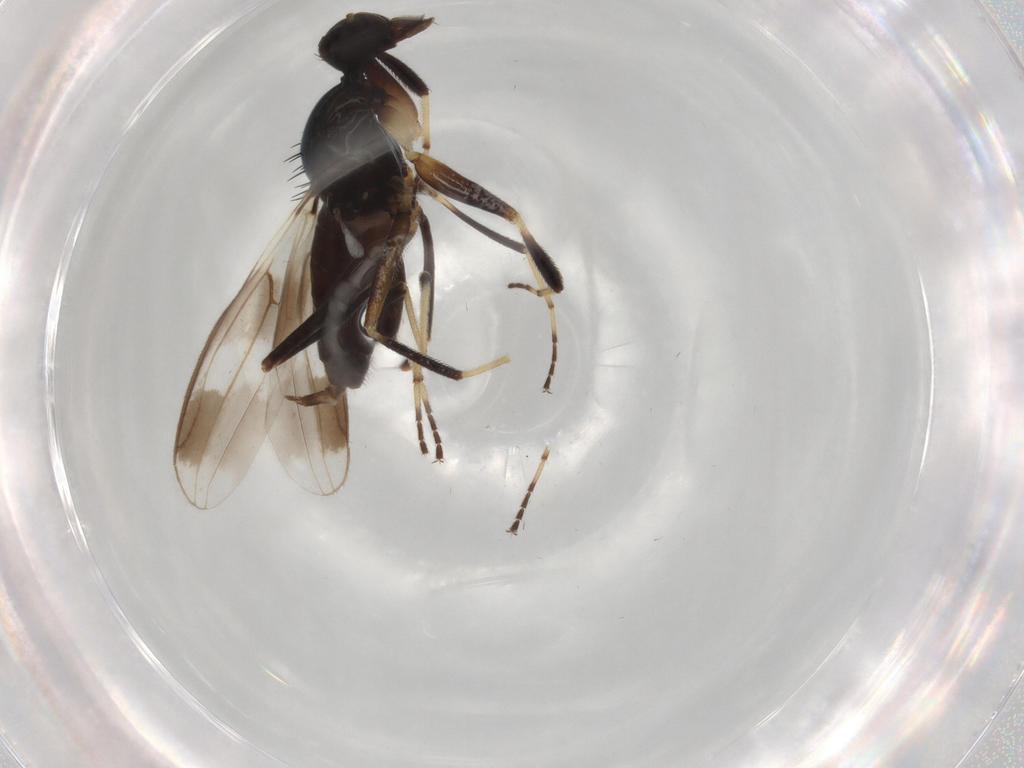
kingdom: Animalia
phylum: Arthropoda
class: Insecta
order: Diptera
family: Hybotidae
